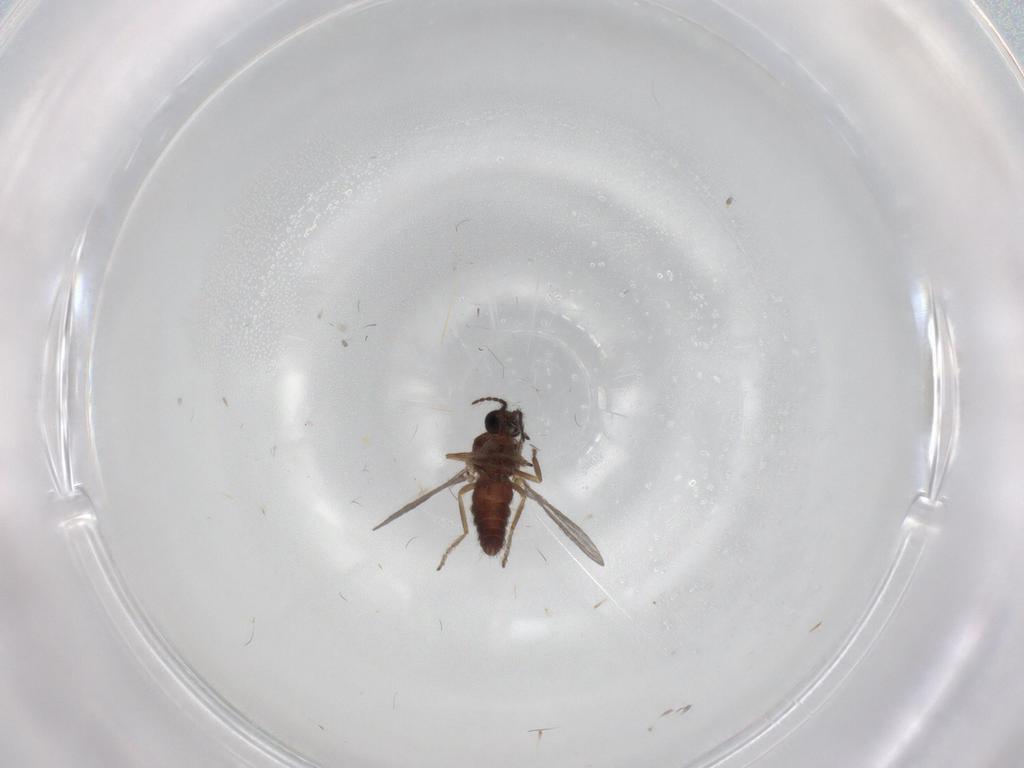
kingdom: Animalia
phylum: Arthropoda
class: Insecta
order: Diptera
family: Ceratopogonidae
